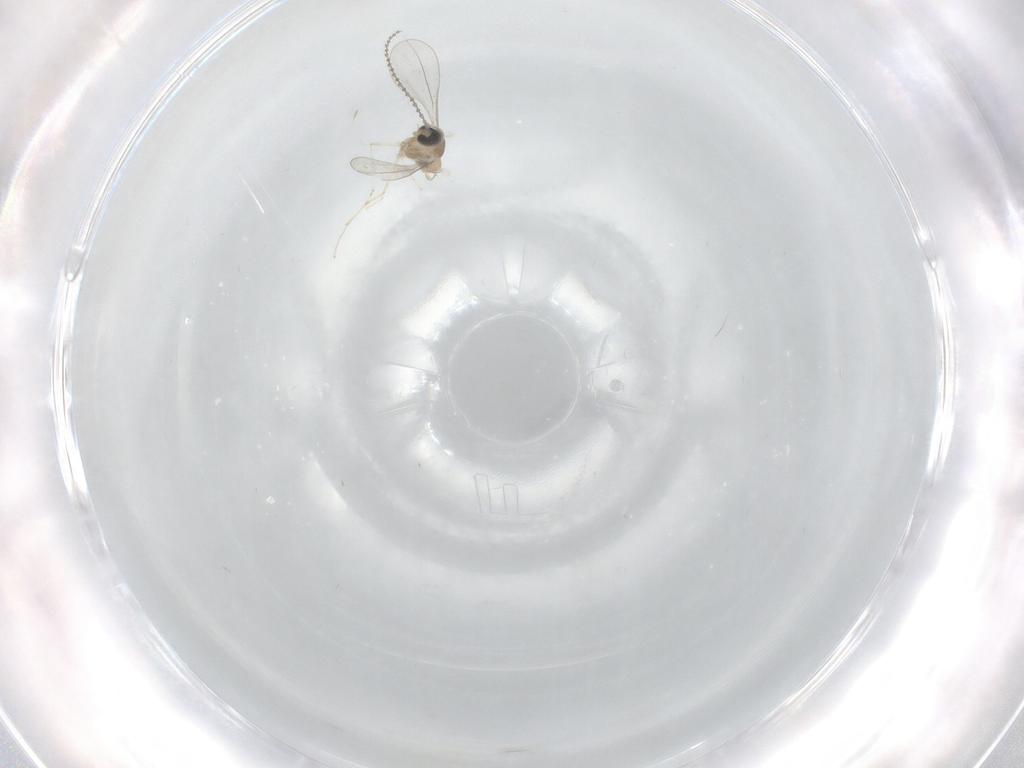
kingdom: Animalia
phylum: Arthropoda
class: Insecta
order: Diptera
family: Cecidomyiidae
